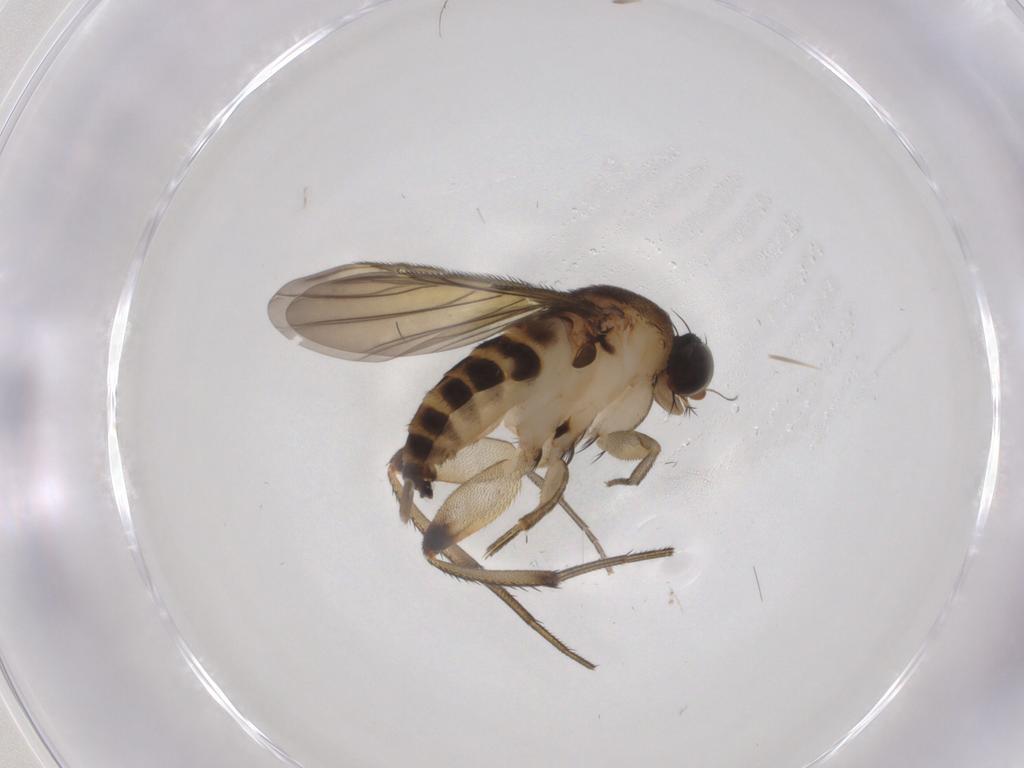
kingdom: Animalia
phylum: Arthropoda
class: Insecta
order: Diptera
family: Phoridae
